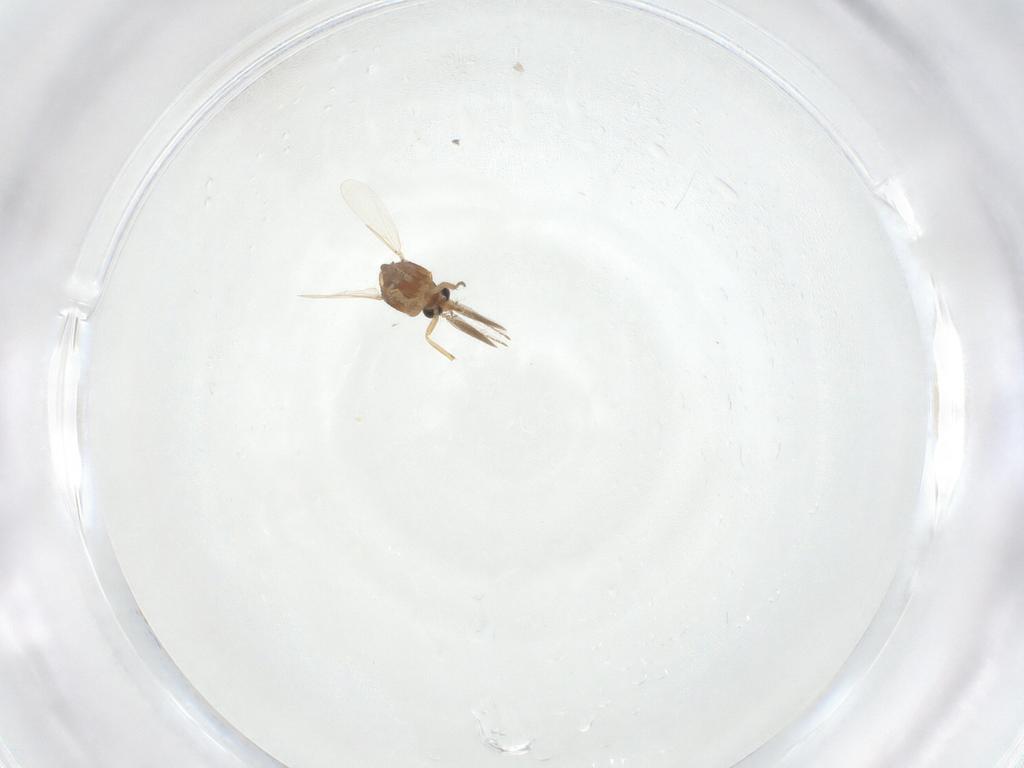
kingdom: Animalia
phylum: Arthropoda
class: Insecta
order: Diptera
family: Ceratopogonidae
